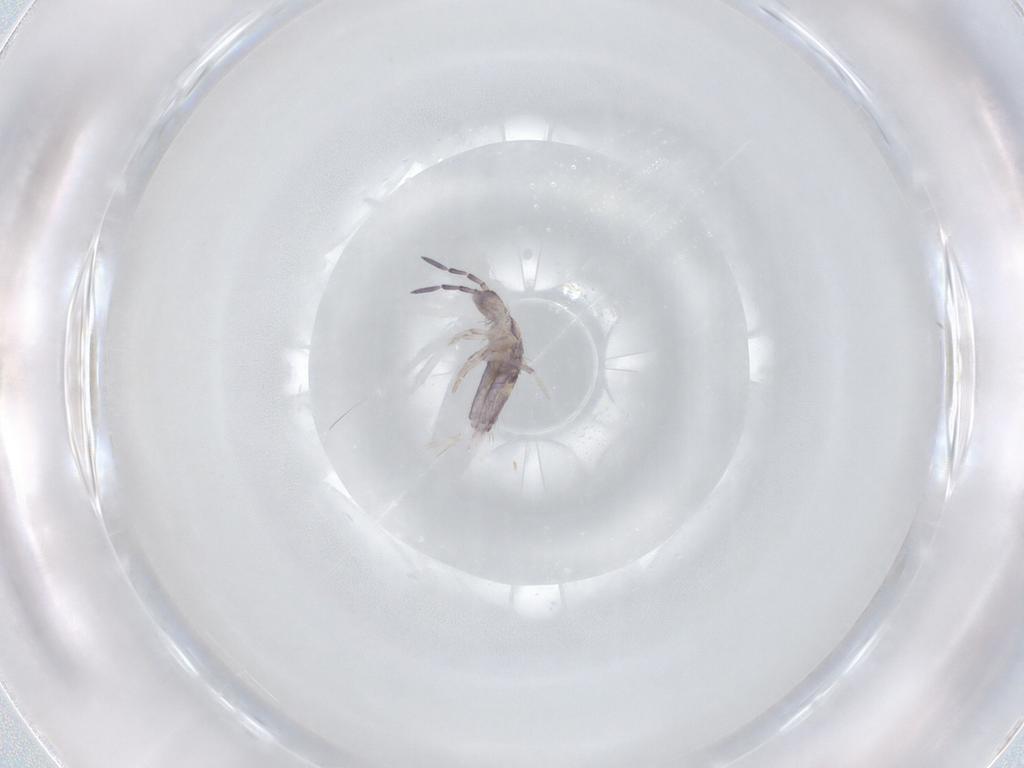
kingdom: Animalia
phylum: Arthropoda
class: Collembola
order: Poduromorpha
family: Hypogastruridae
